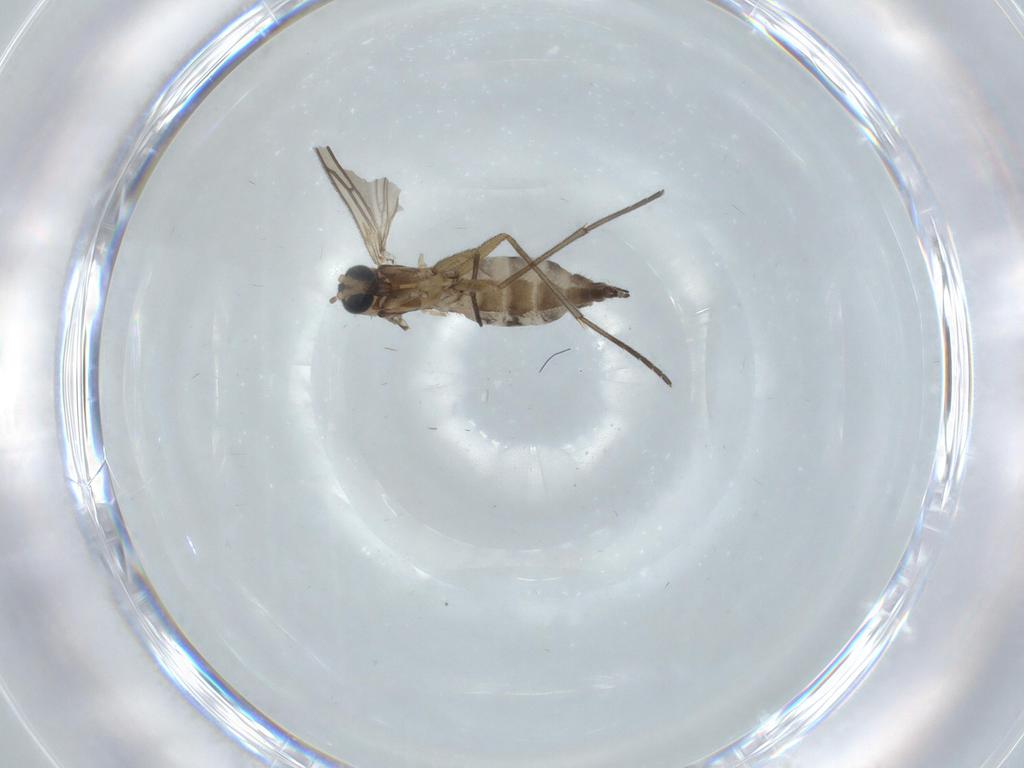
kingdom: Animalia
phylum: Arthropoda
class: Insecta
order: Diptera
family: Sciaridae
